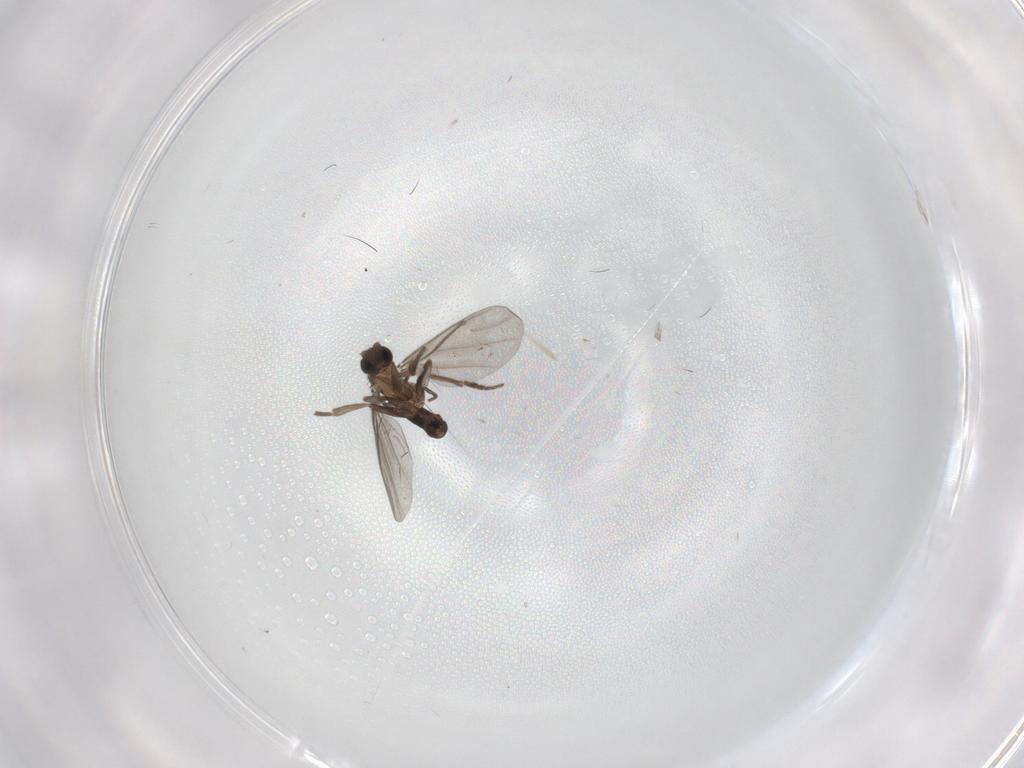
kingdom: Animalia
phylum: Arthropoda
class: Insecta
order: Diptera
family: Phoridae
